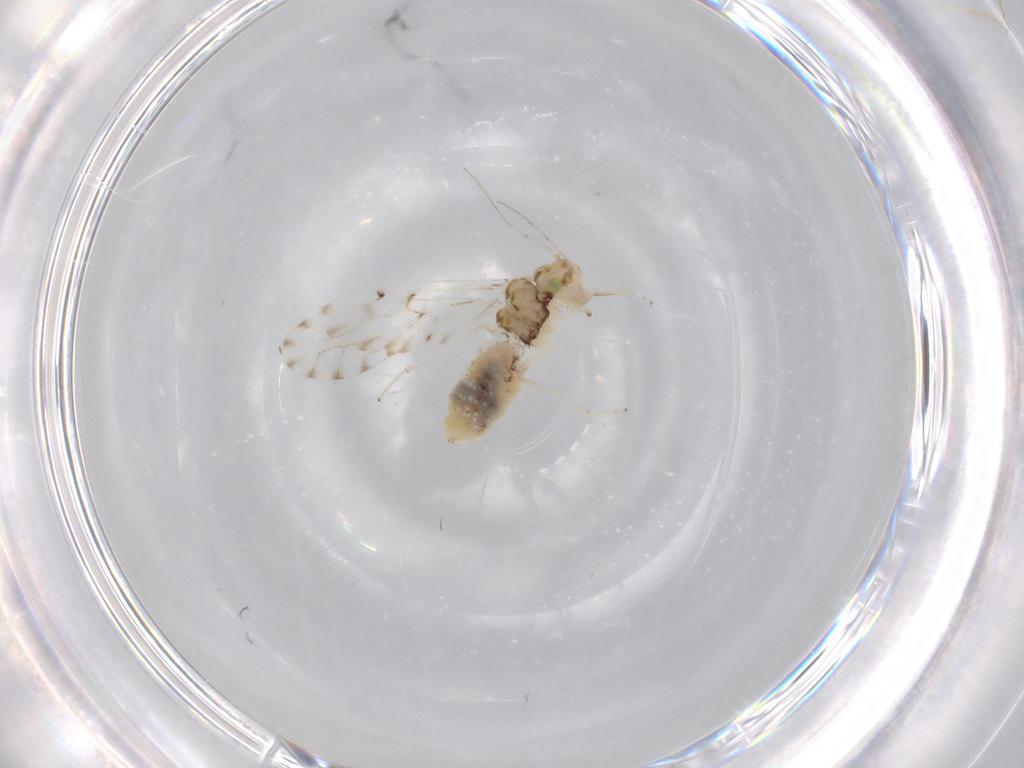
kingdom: Animalia
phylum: Arthropoda
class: Insecta
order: Psocodea
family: Ectopsocidae
